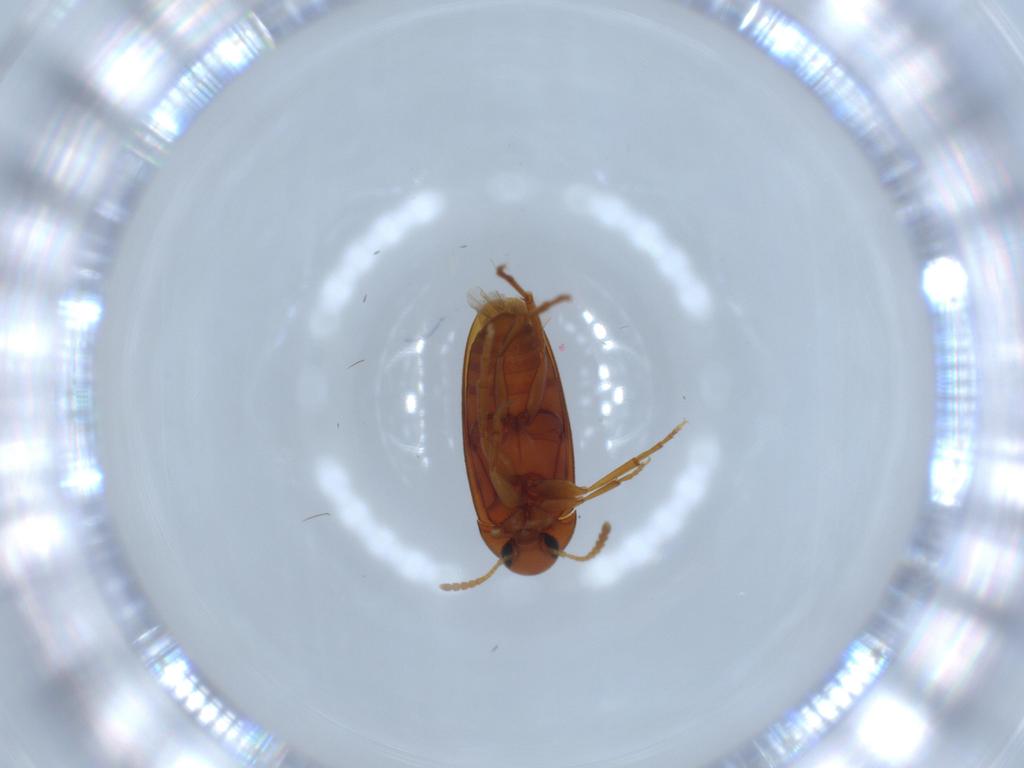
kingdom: Animalia
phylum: Arthropoda
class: Insecta
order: Coleoptera
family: Scraptiidae
